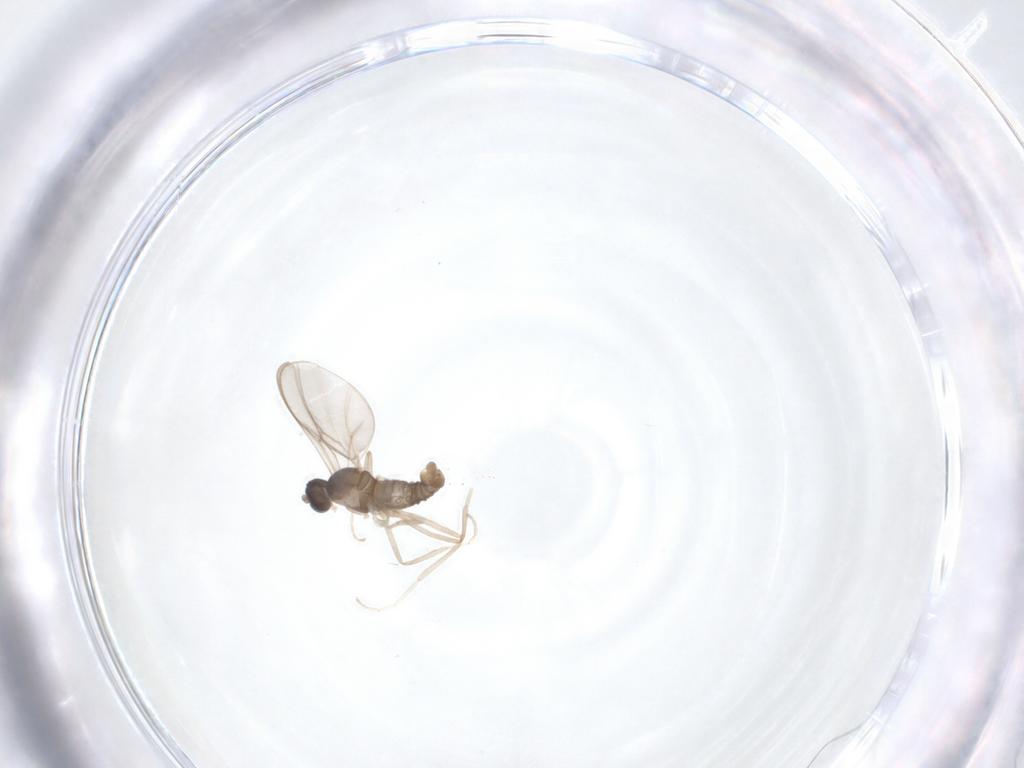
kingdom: Animalia
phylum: Arthropoda
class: Insecta
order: Diptera
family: Cecidomyiidae
